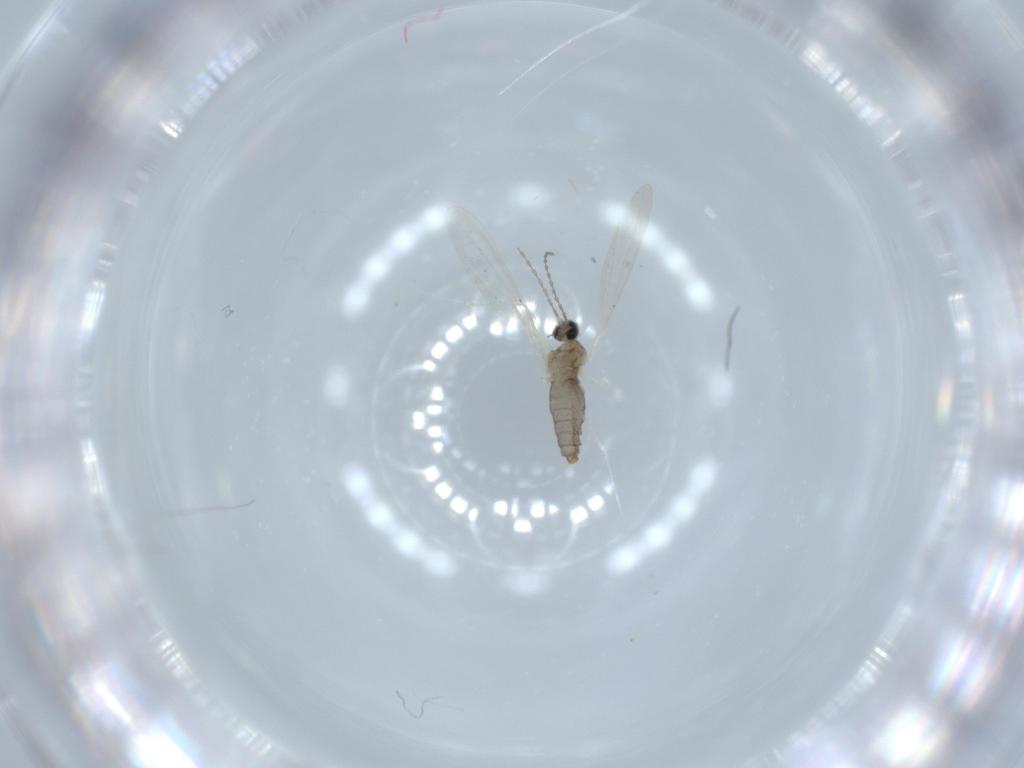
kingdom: Animalia
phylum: Arthropoda
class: Insecta
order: Diptera
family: Cecidomyiidae
